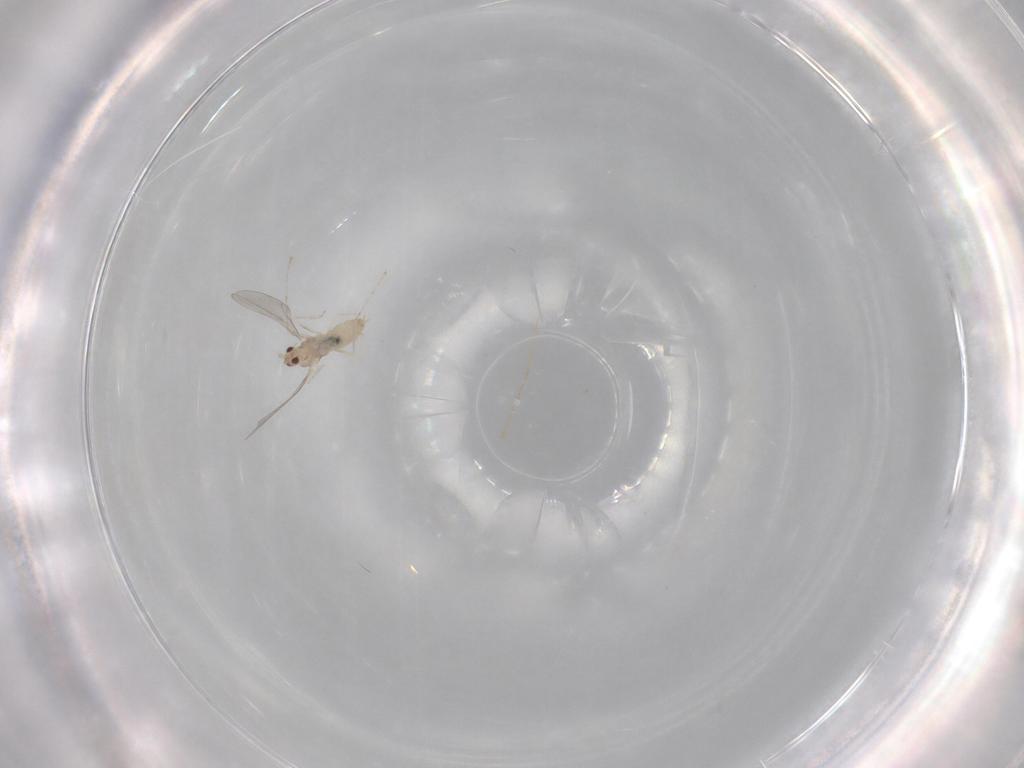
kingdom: Animalia
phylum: Arthropoda
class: Insecta
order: Diptera
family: Cecidomyiidae
